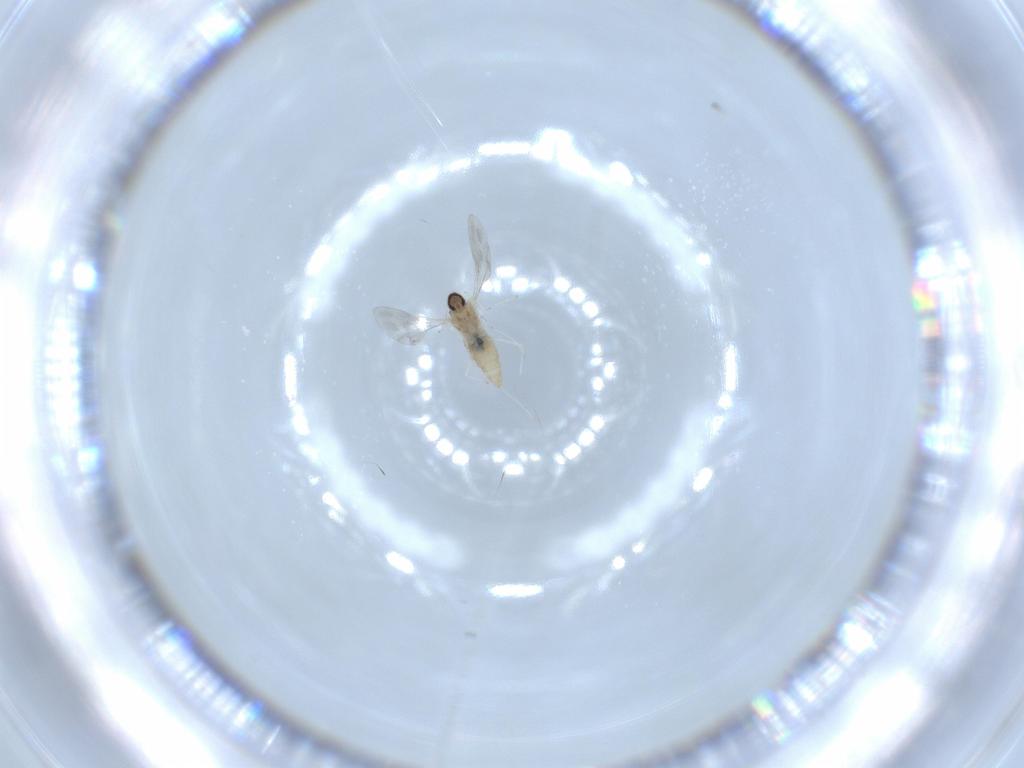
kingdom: Animalia
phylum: Arthropoda
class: Insecta
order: Diptera
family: Cecidomyiidae
